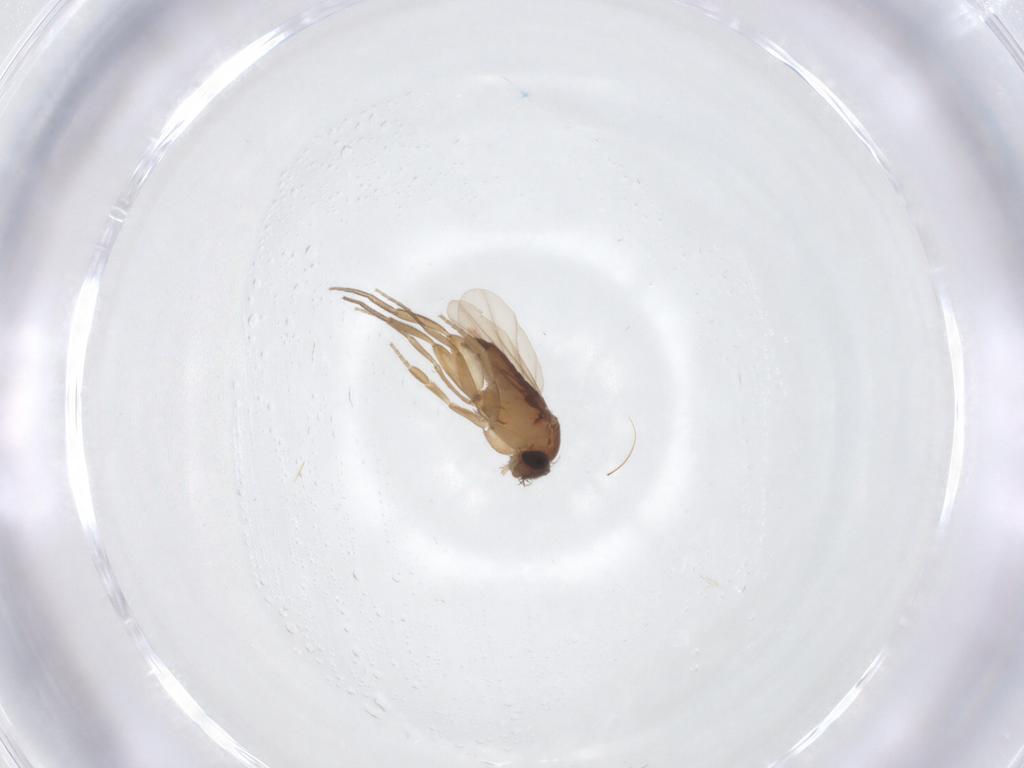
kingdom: Animalia
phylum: Arthropoda
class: Insecta
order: Diptera
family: Phoridae
